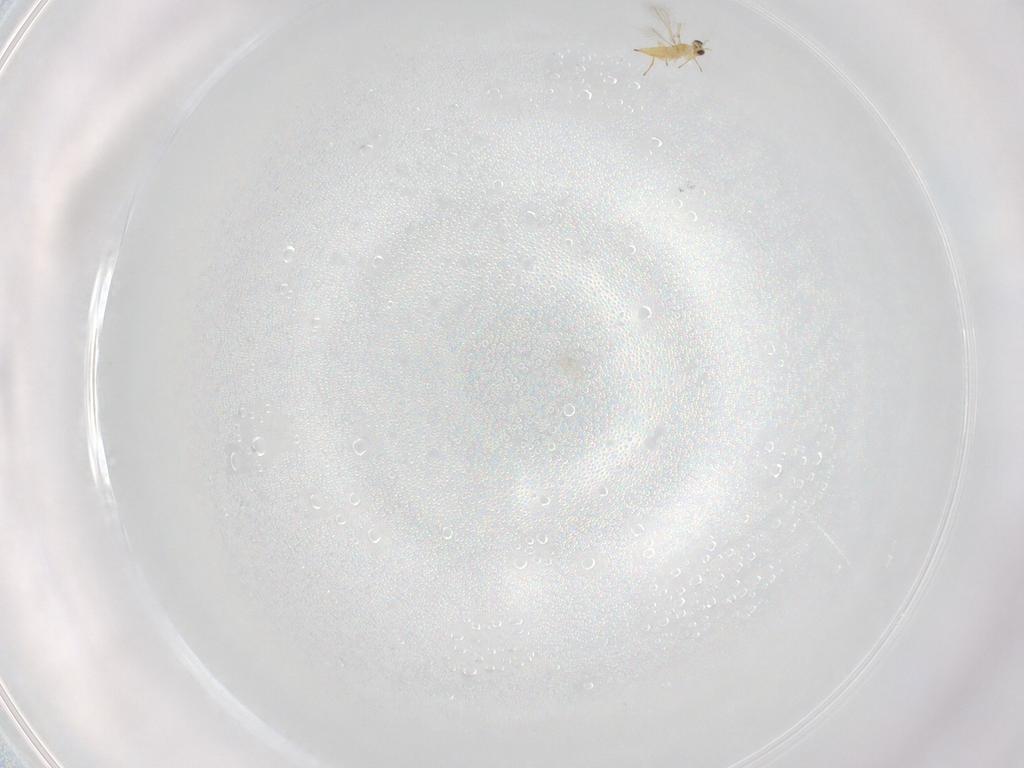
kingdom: Animalia
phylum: Arthropoda
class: Insecta
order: Hymenoptera
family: Mymaridae
